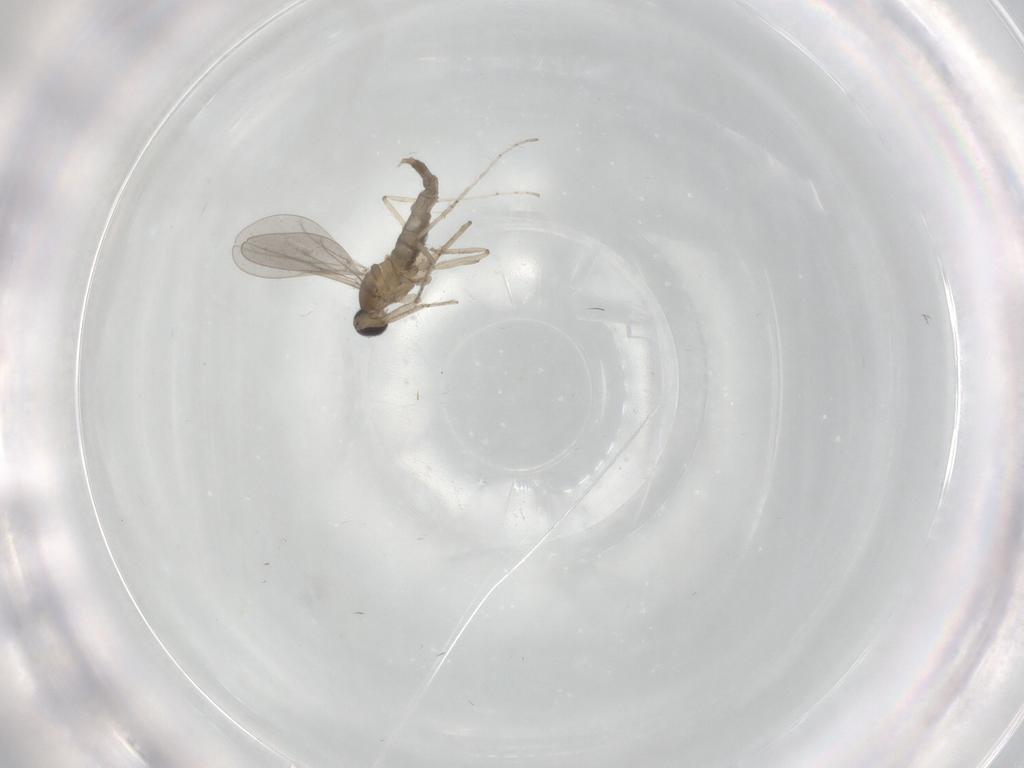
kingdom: Animalia
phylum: Arthropoda
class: Insecta
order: Diptera
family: Cecidomyiidae
